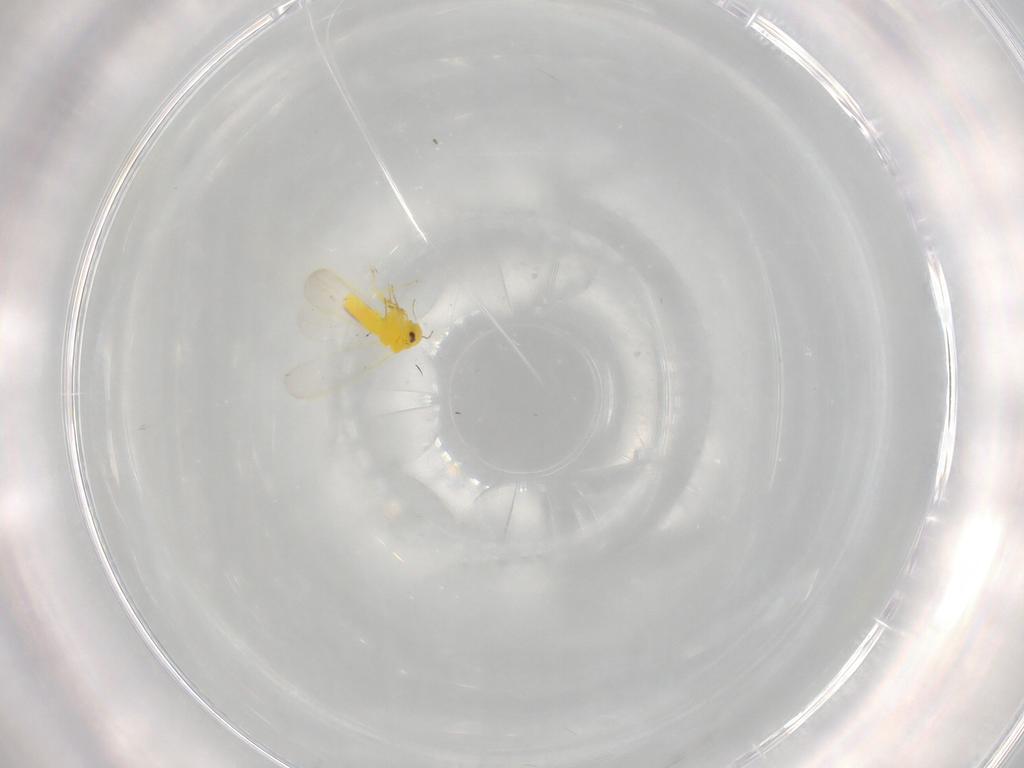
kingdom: Animalia
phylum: Arthropoda
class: Insecta
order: Hemiptera
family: Aleyrodidae
